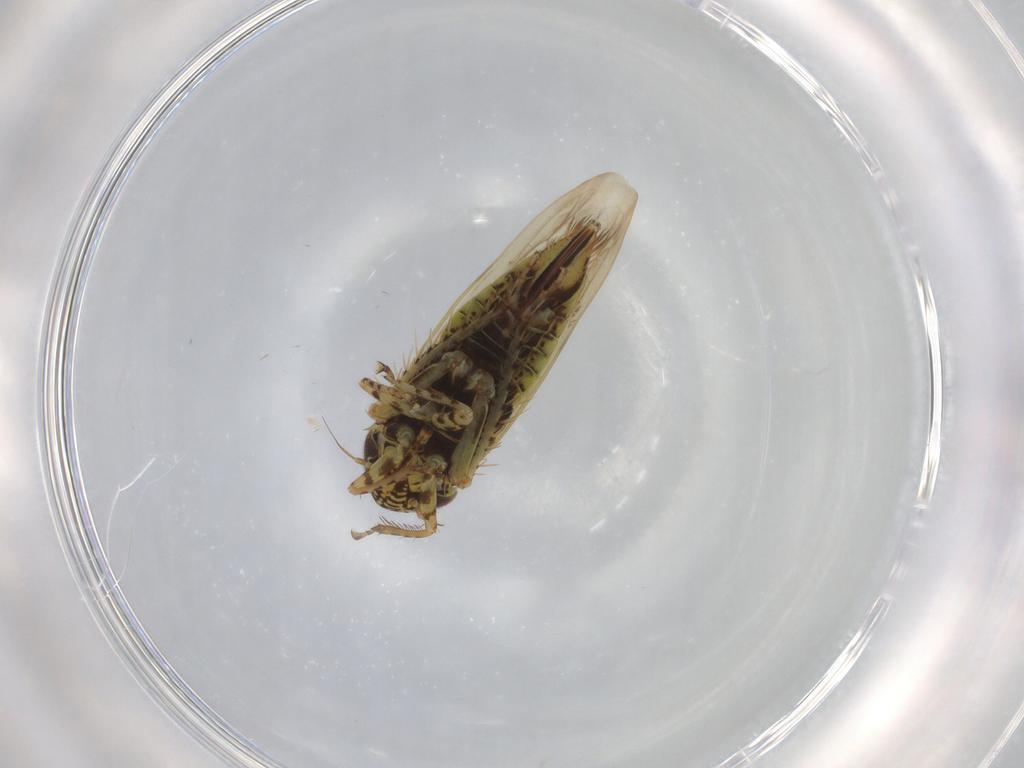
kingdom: Animalia
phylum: Arthropoda
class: Insecta
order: Hemiptera
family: Cicadellidae
